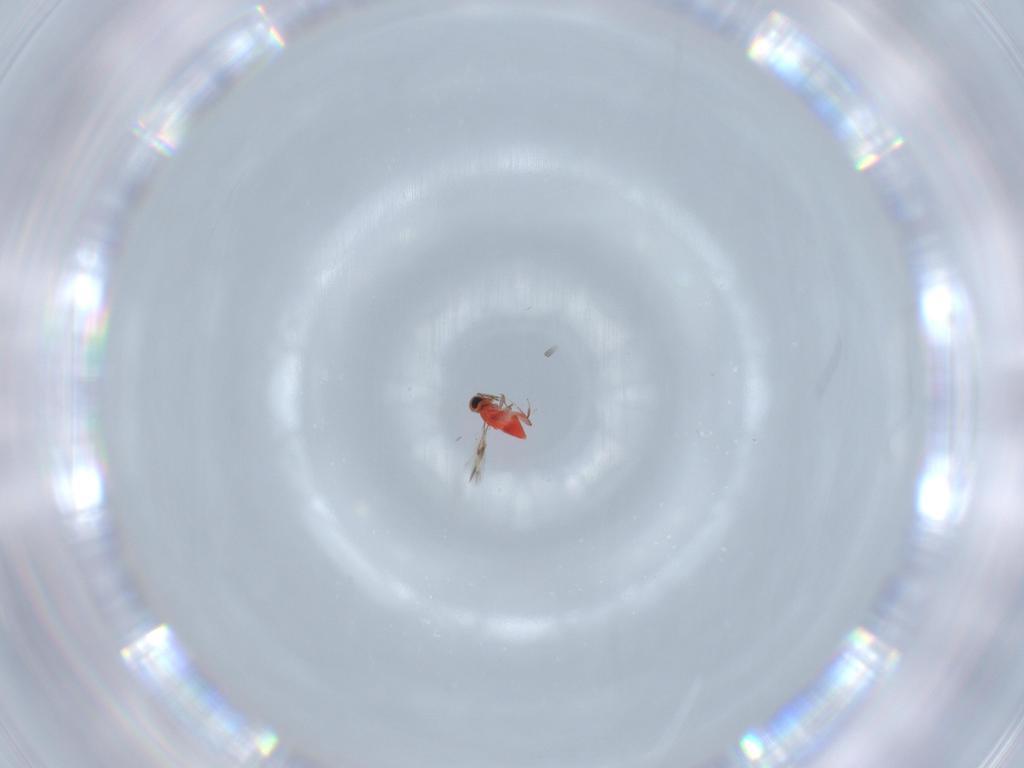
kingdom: Animalia
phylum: Arthropoda
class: Insecta
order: Hymenoptera
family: Trichogrammatidae
